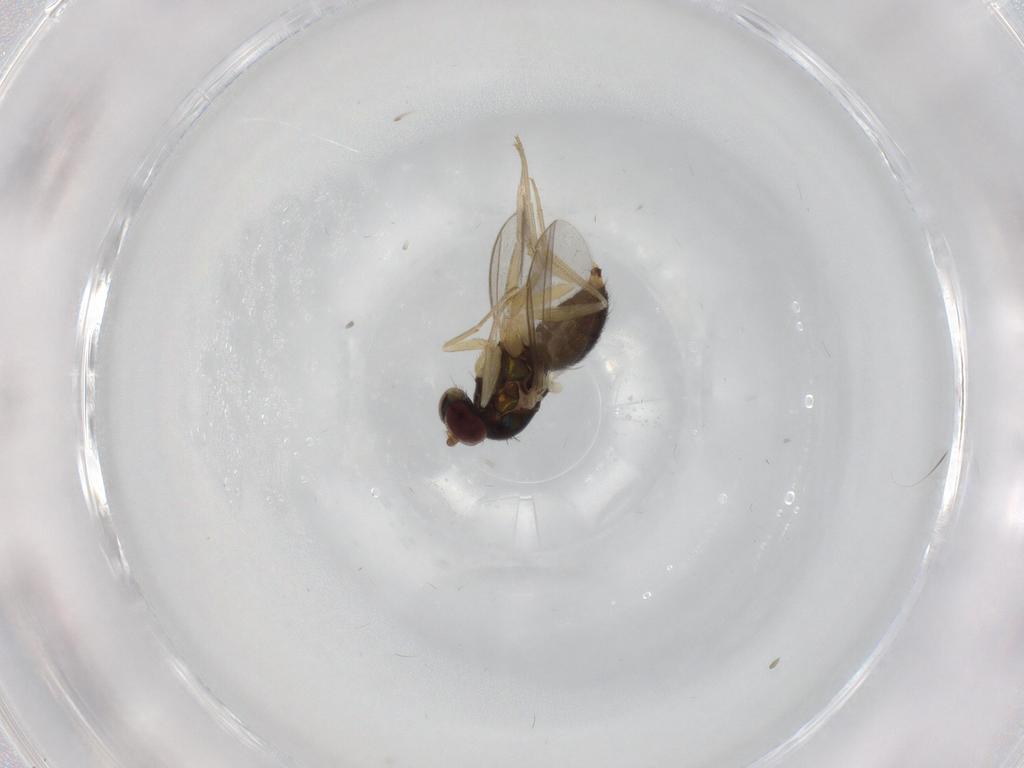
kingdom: Animalia
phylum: Arthropoda
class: Insecta
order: Diptera
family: Dolichopodidae
